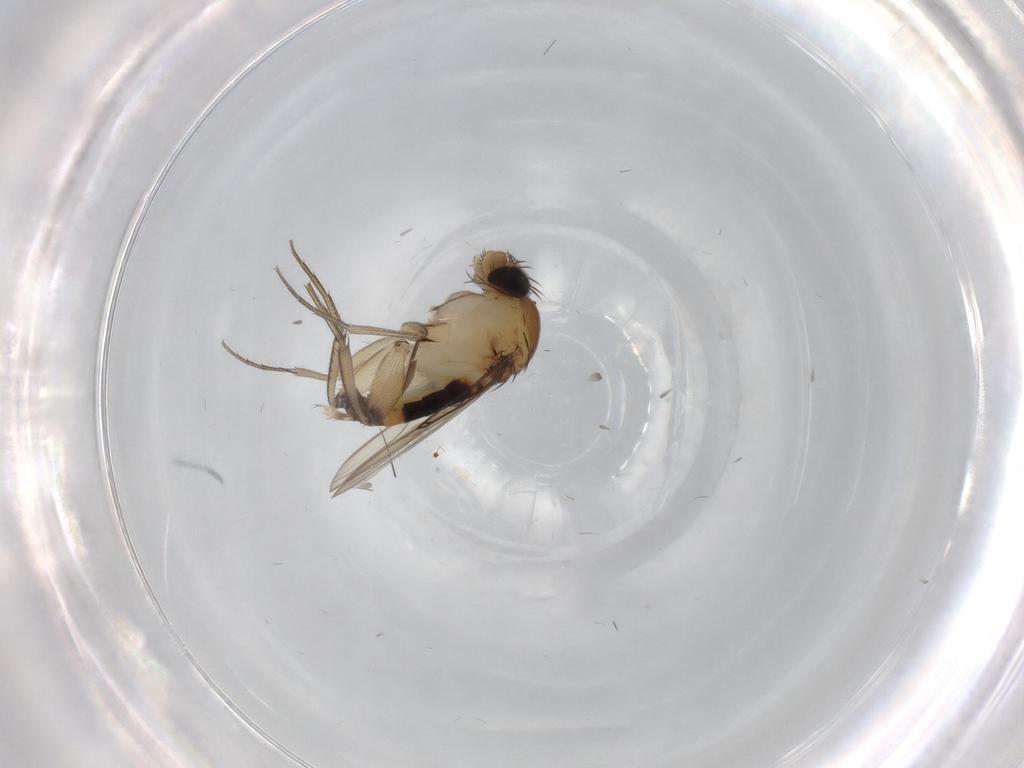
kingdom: Animalia
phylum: Arthropoda
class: Insecta
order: Diptera
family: Phoridae
